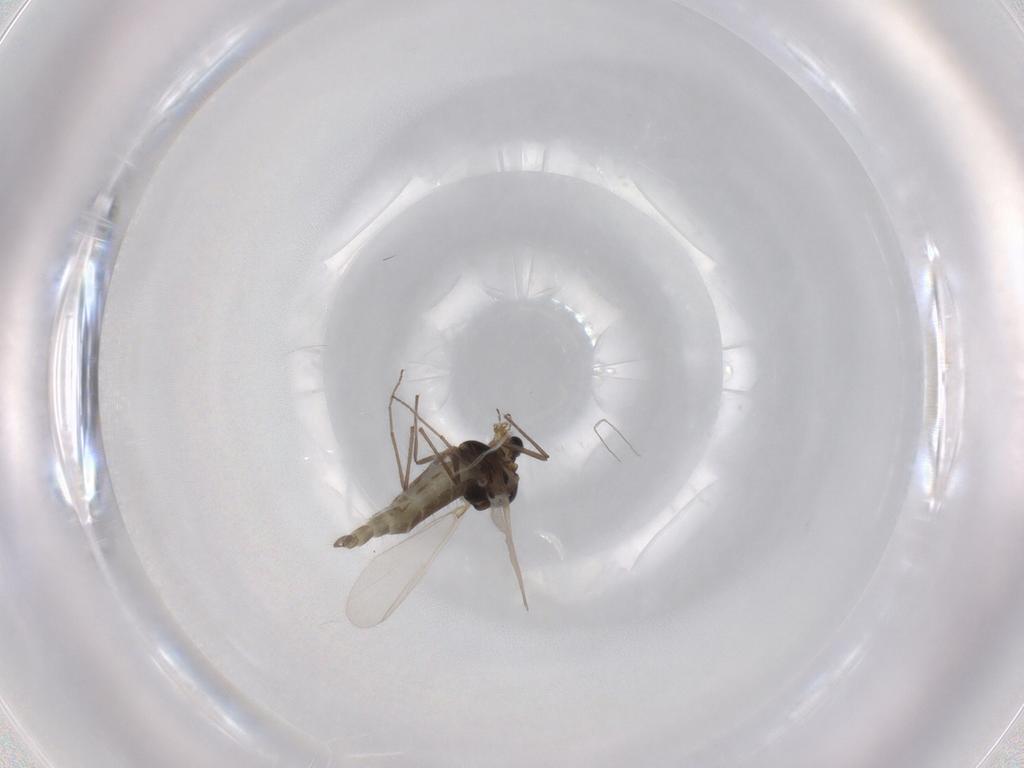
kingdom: Animalia
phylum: Arthropoda
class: Insecta
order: Diptera
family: Chironomidae
